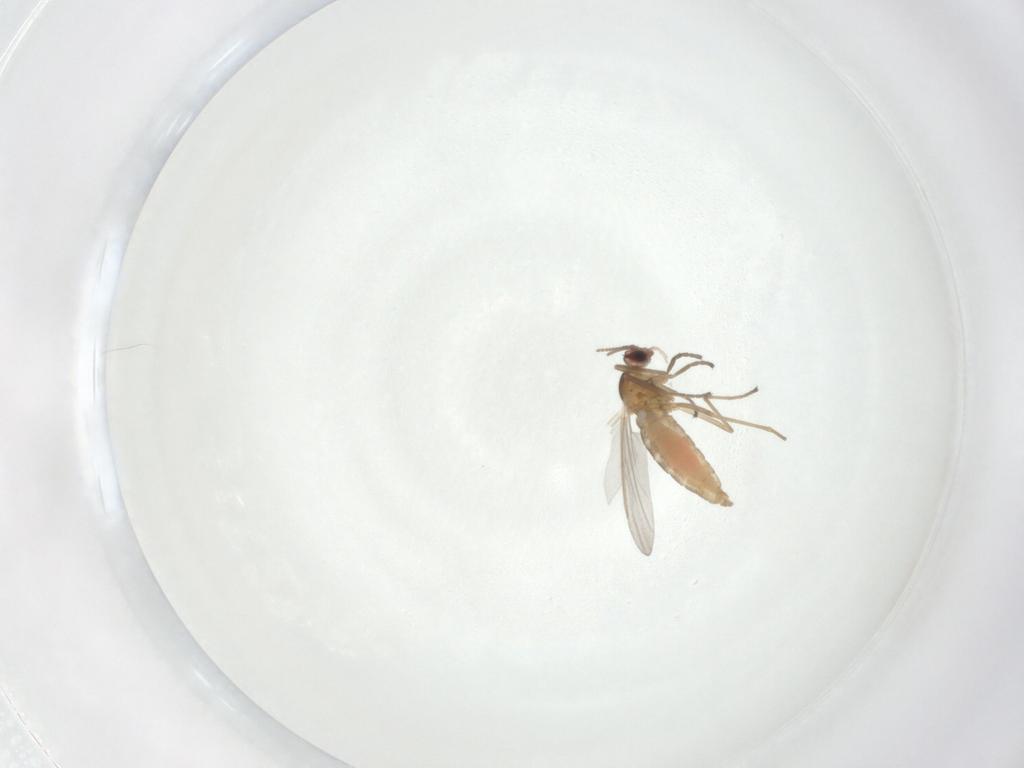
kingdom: Animalia
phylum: Arthropoda
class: Insecta
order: Diptera
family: Cecidomyiidae
